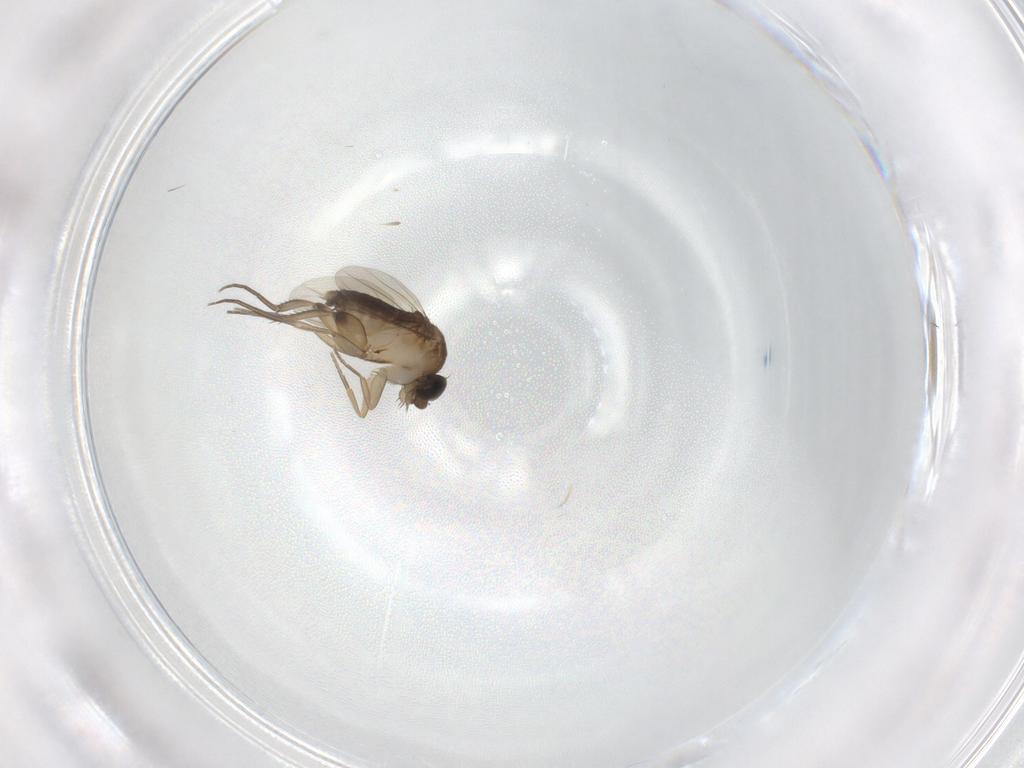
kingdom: Animalia
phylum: Arthropoda
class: Insecta
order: Diptera
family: Phoridae
